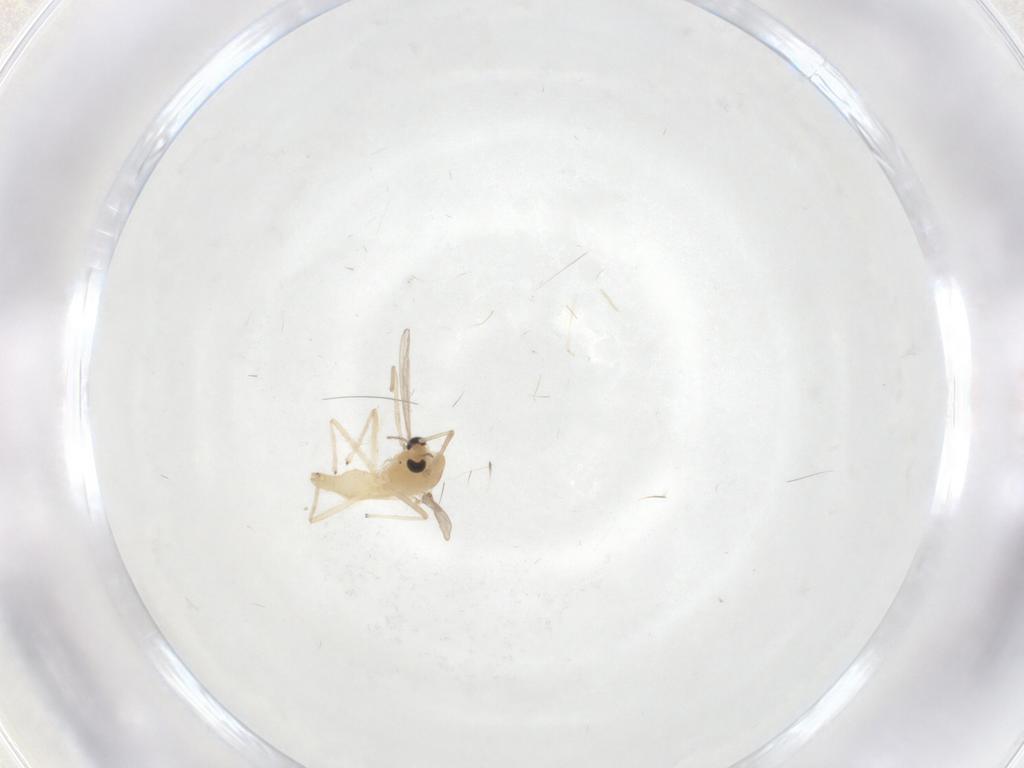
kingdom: Animalia
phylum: Arthropoda
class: Insecta
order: Diptera
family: Chironomidae
